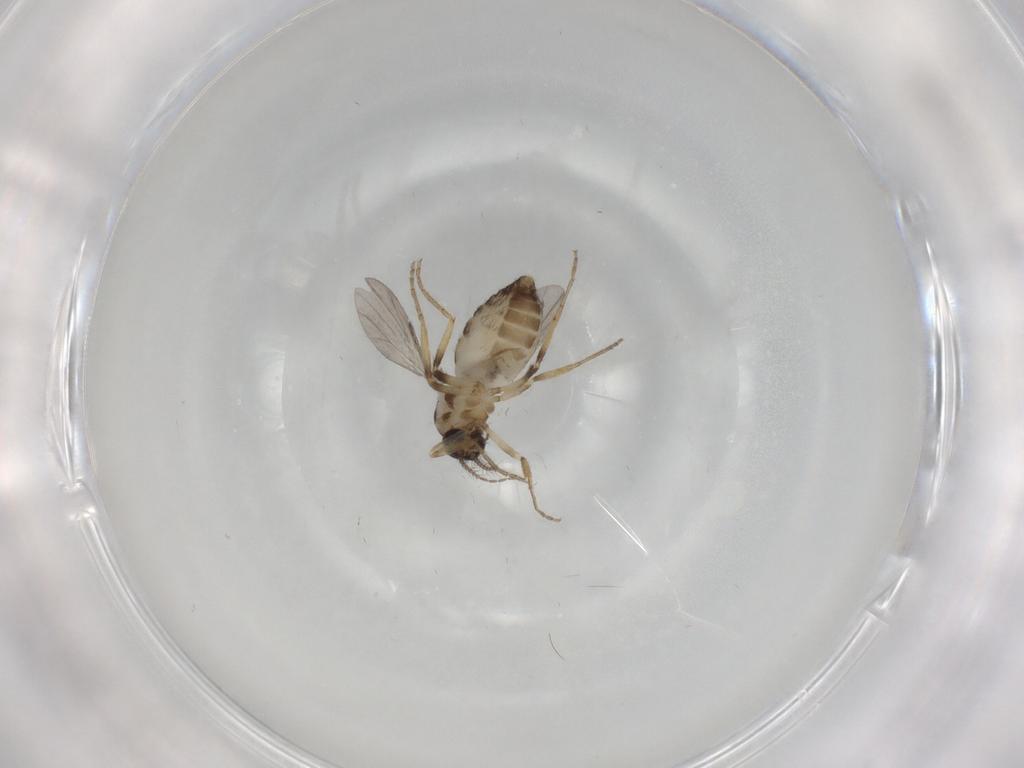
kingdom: Animalia
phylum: Arthropoda
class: Insecta
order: Diptera
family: Ceratopogonidae
